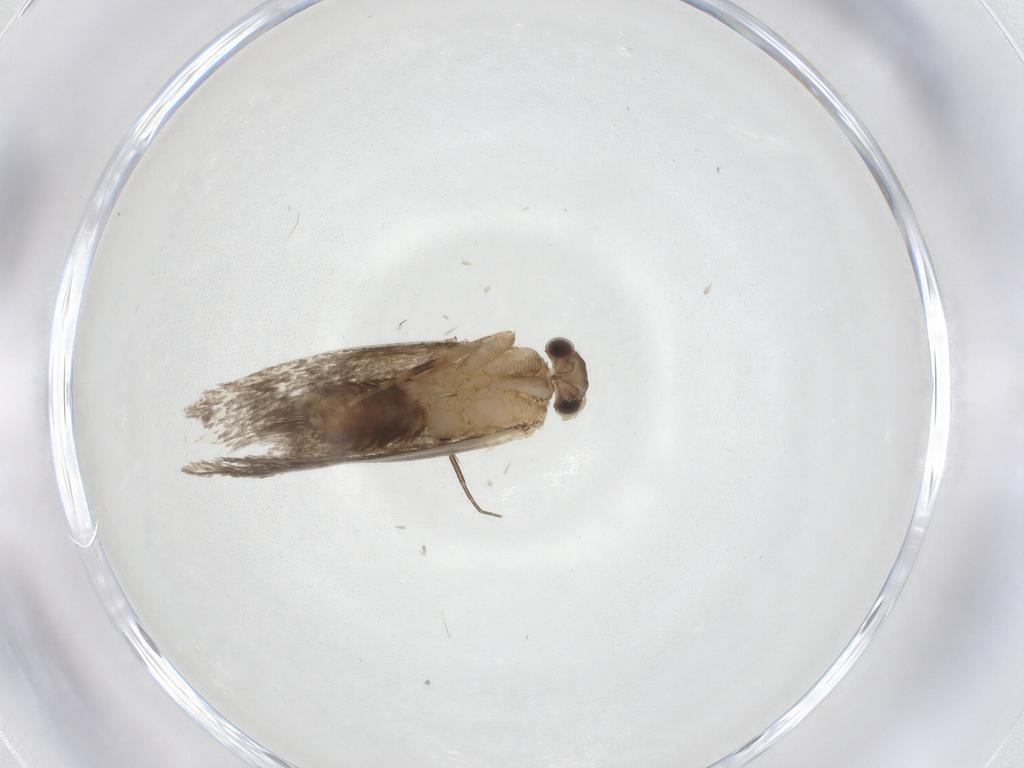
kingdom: Animalia
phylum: Arthropoda
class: Insecta
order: Lepidoptera
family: Dryadaulidae
